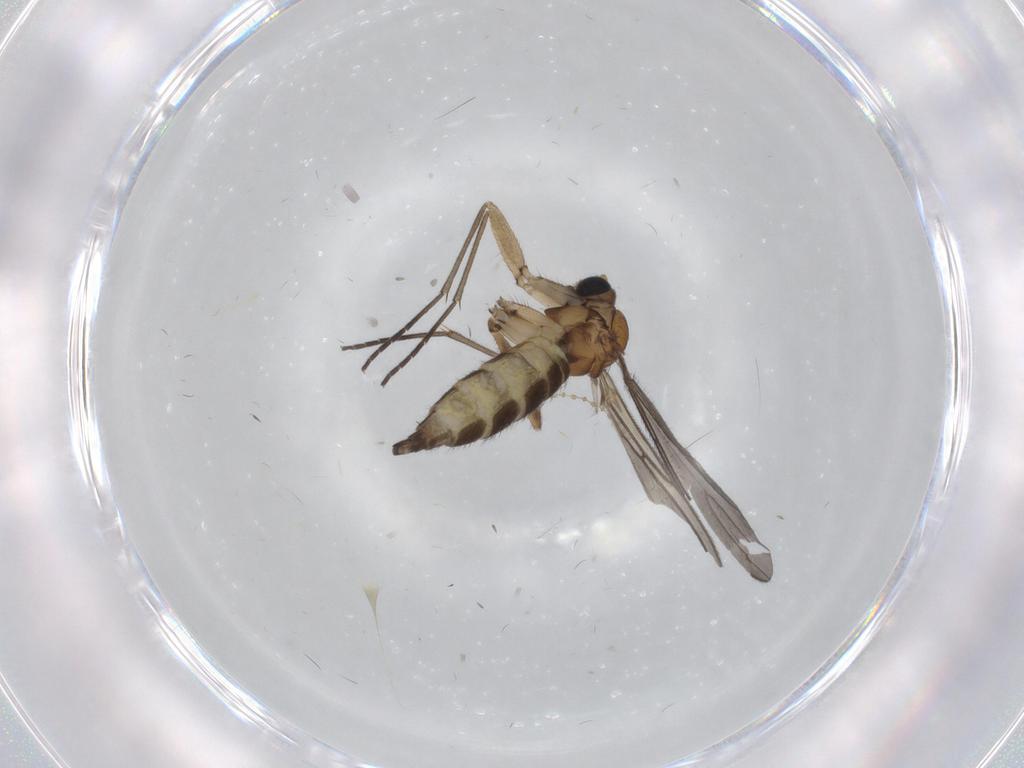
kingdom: Animalia
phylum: Arthropoda
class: Insecta
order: Diptera
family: Sciaridae
